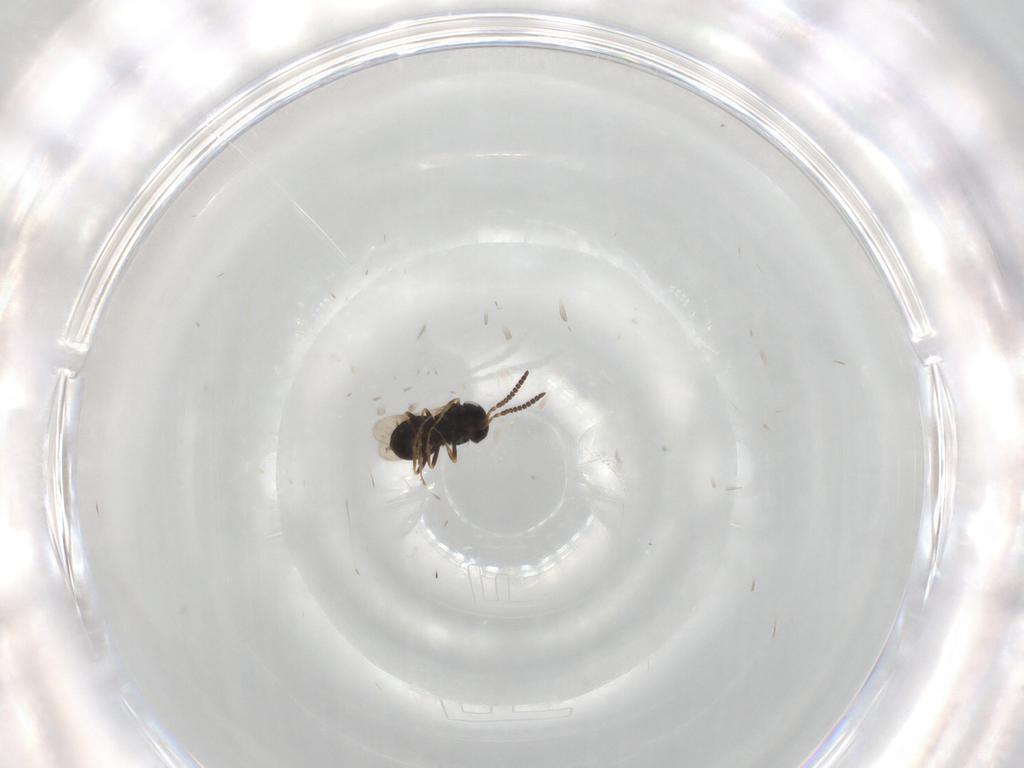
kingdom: Animalia
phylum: Arthropoda
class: Insecta
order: Hymenoptera
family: Scelionidae
